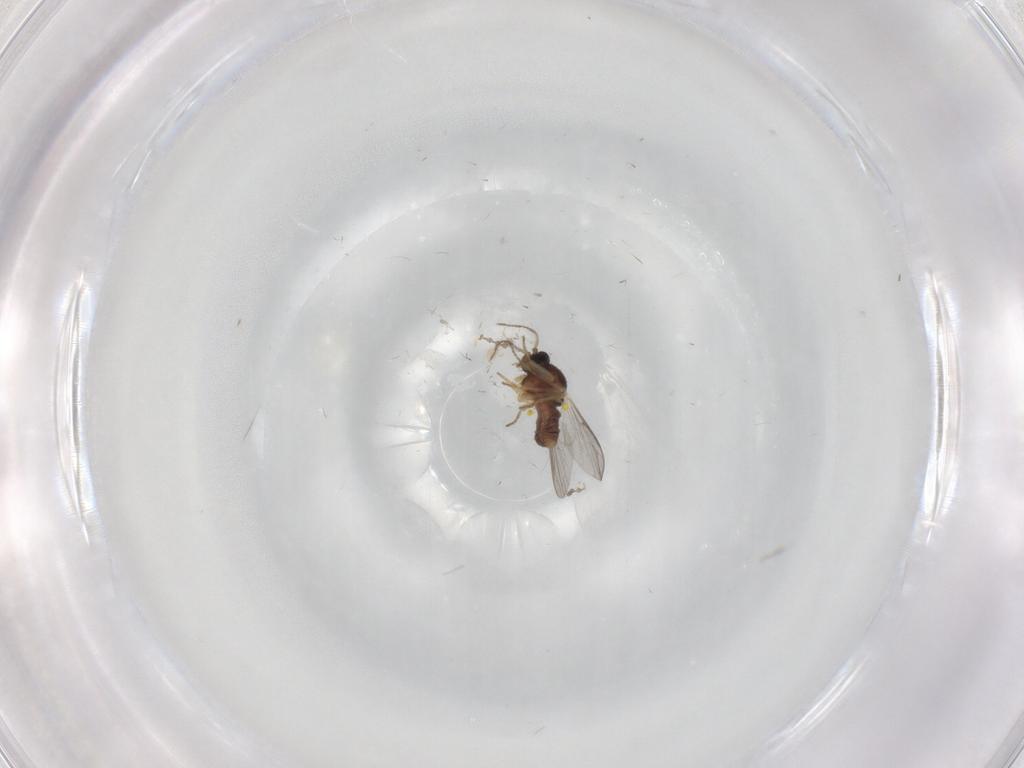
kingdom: Animalia
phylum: Arthropoda
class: Insecta
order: Diptera
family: Ceratopogonidae
